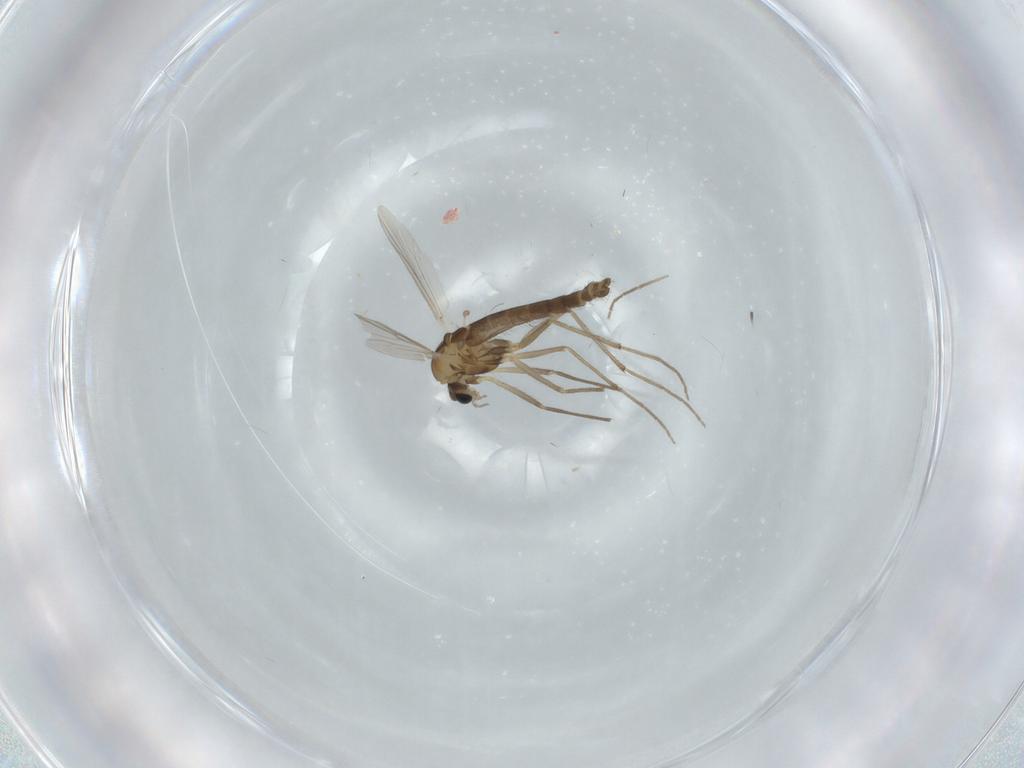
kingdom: Animalia
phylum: Arthropoda
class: Insecta
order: Diptera
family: Chironomidae
